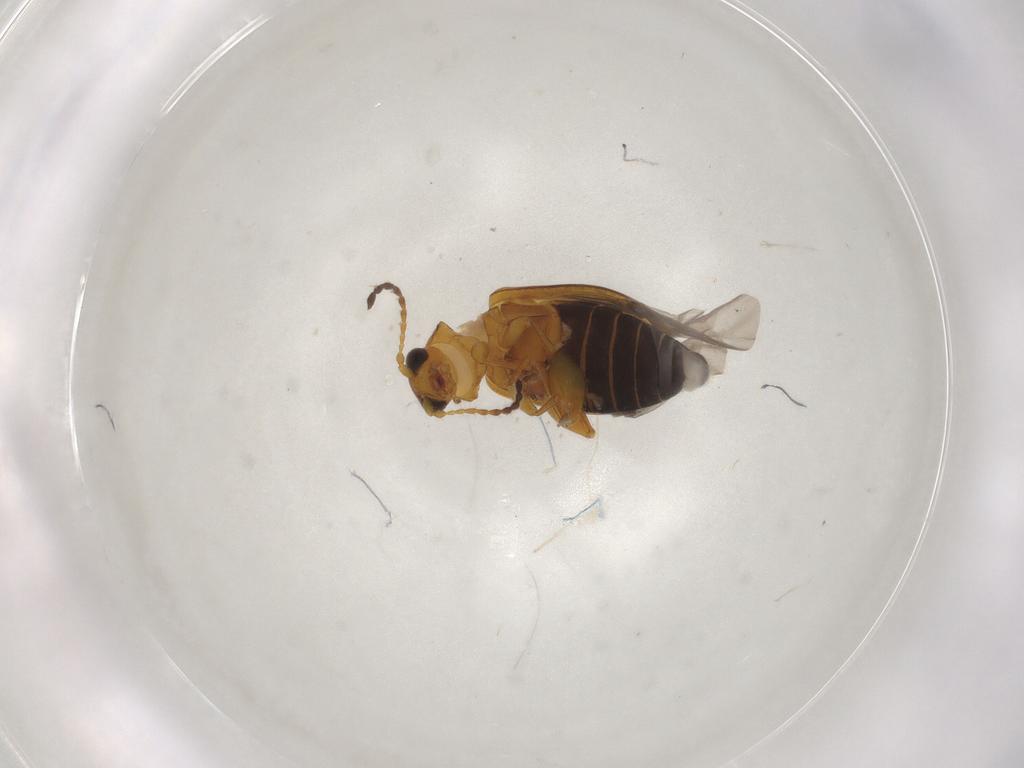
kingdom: Animalia
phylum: Arthropoda
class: Insecta
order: Coleoptera
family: Chrysomelidae
